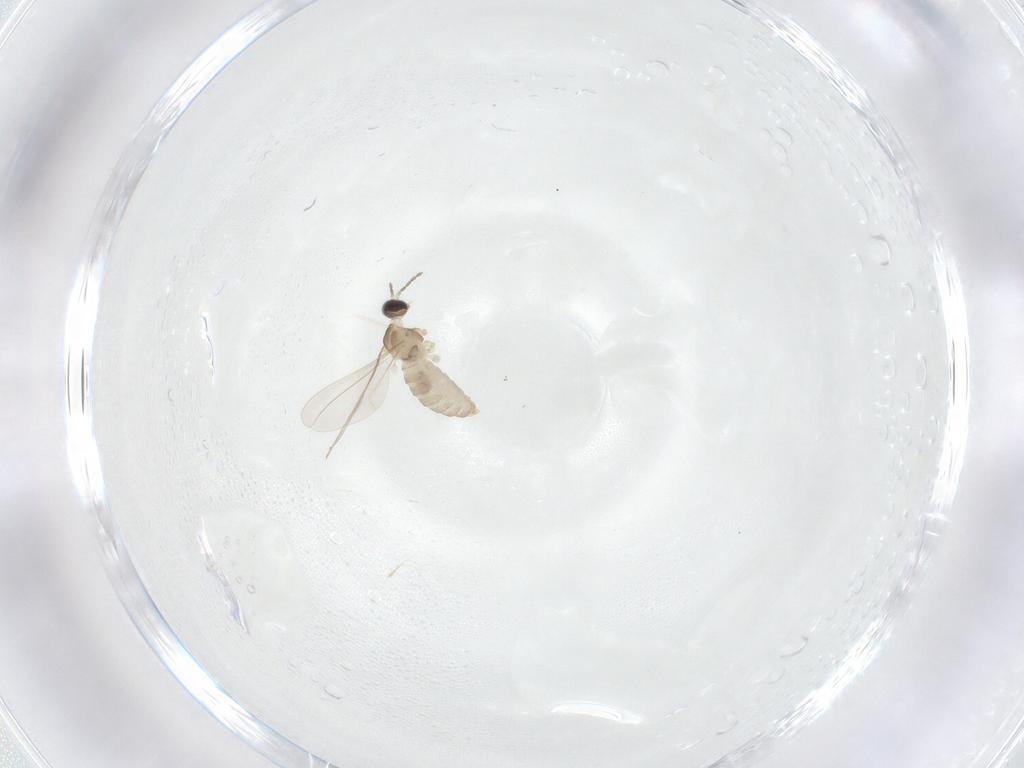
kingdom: Animalia
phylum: Arthropoda
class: Insecta
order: Diptera
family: Cecidomyiidae
